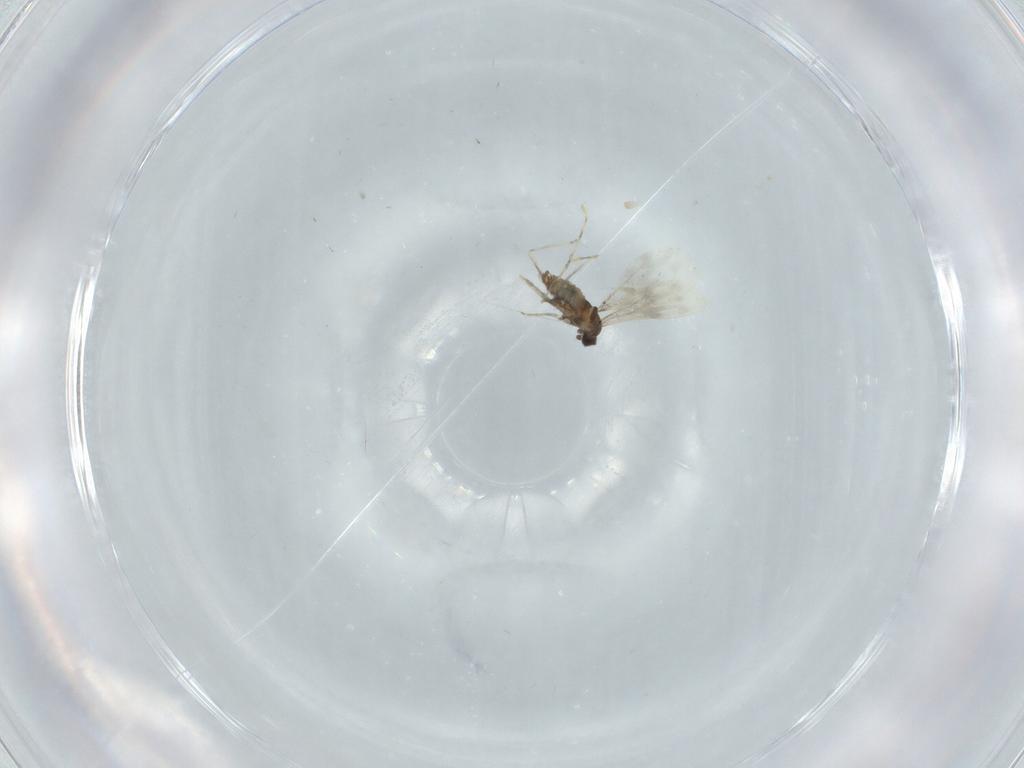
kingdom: Animalia
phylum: Arthropoda
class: Insecta
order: Diptera
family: Cecidomyiidae
